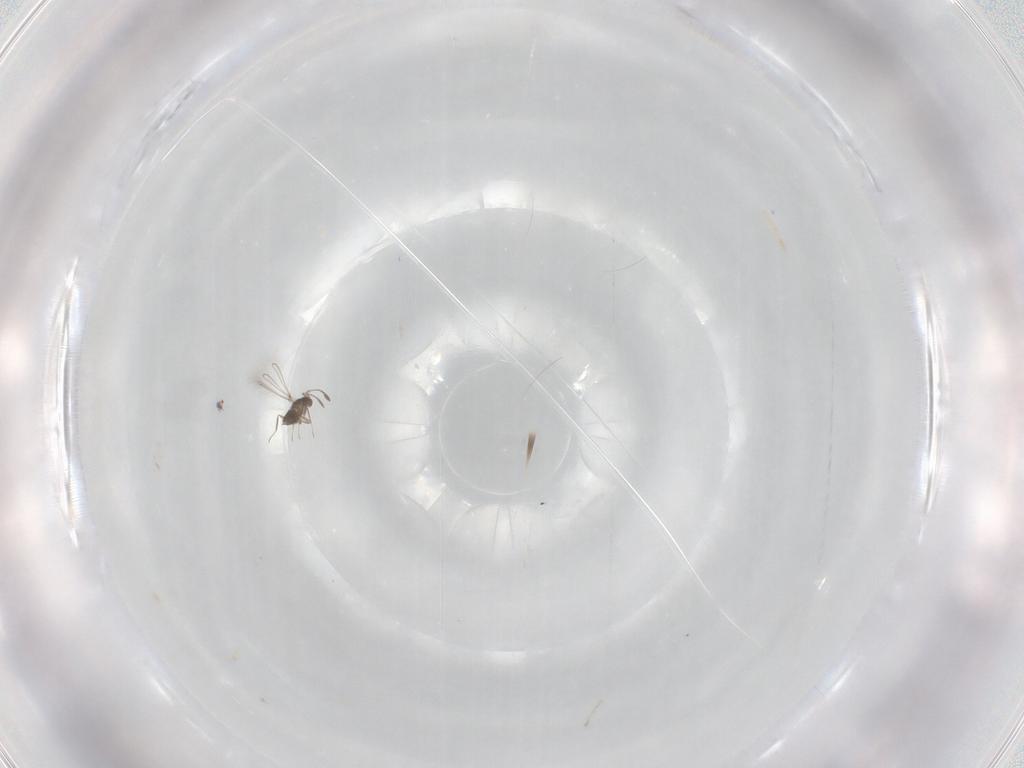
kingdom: Animalia
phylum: Arthropoda
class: Insecta
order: Hymenoptera
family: Mymaridae
